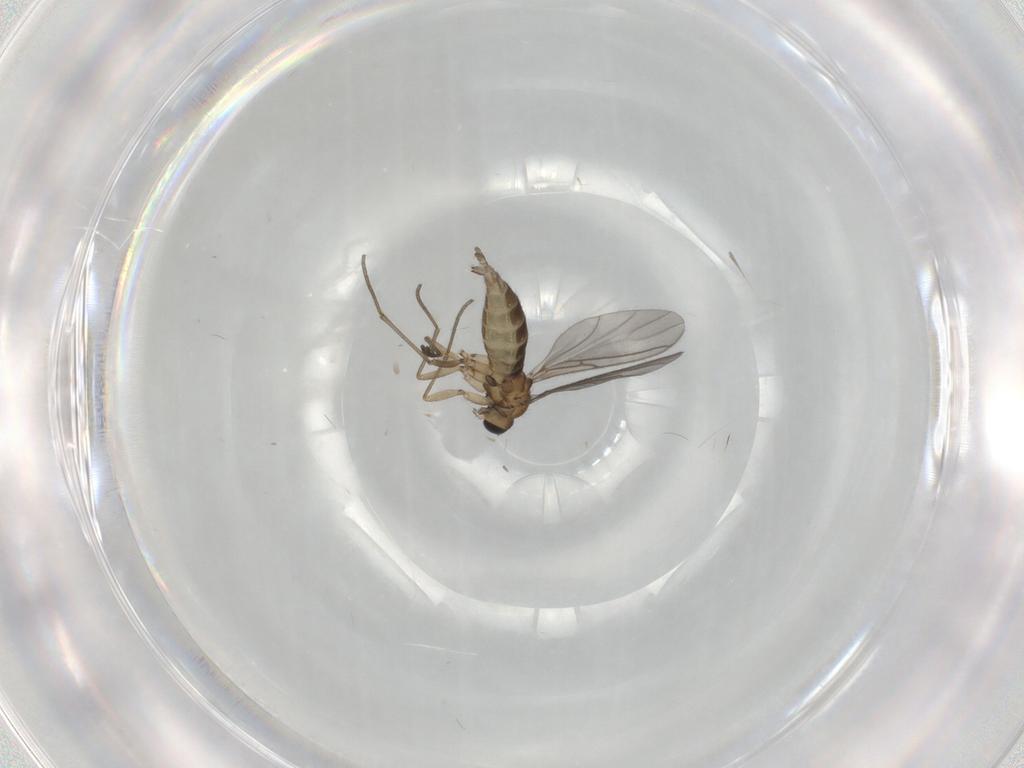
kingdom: Animalia
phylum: Arthropoda
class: Insecta
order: Diptera
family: Sciaridae
